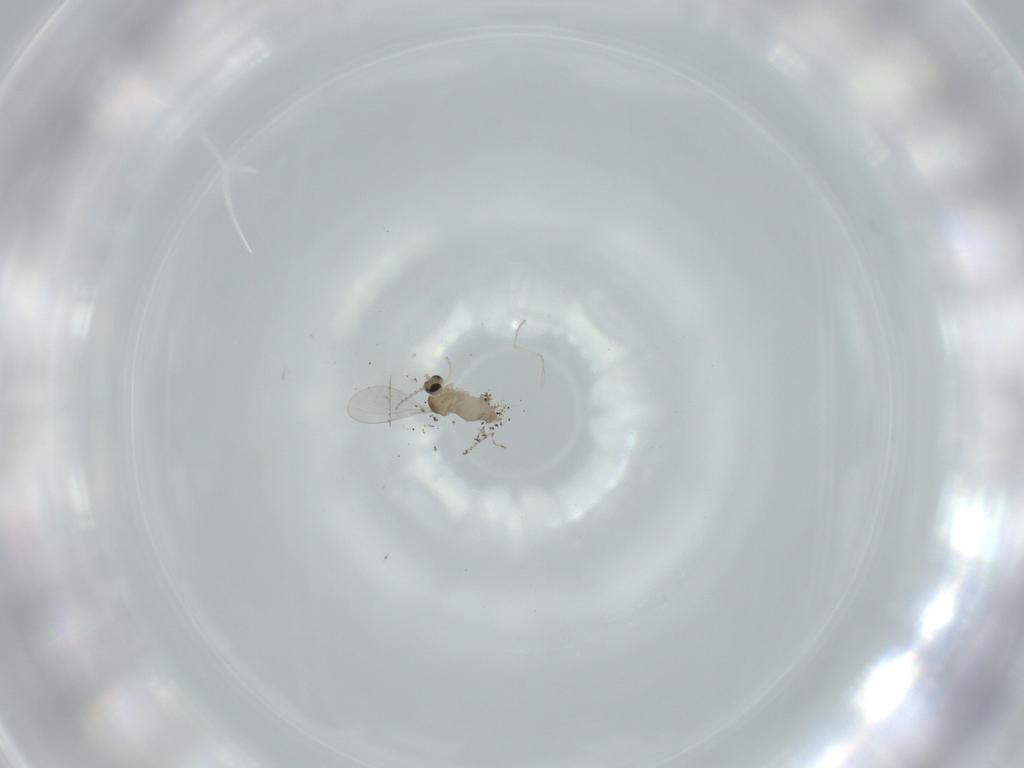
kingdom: Animalia
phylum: Arthropoda
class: Insecta
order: Diptera
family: Cecidomyiidae
